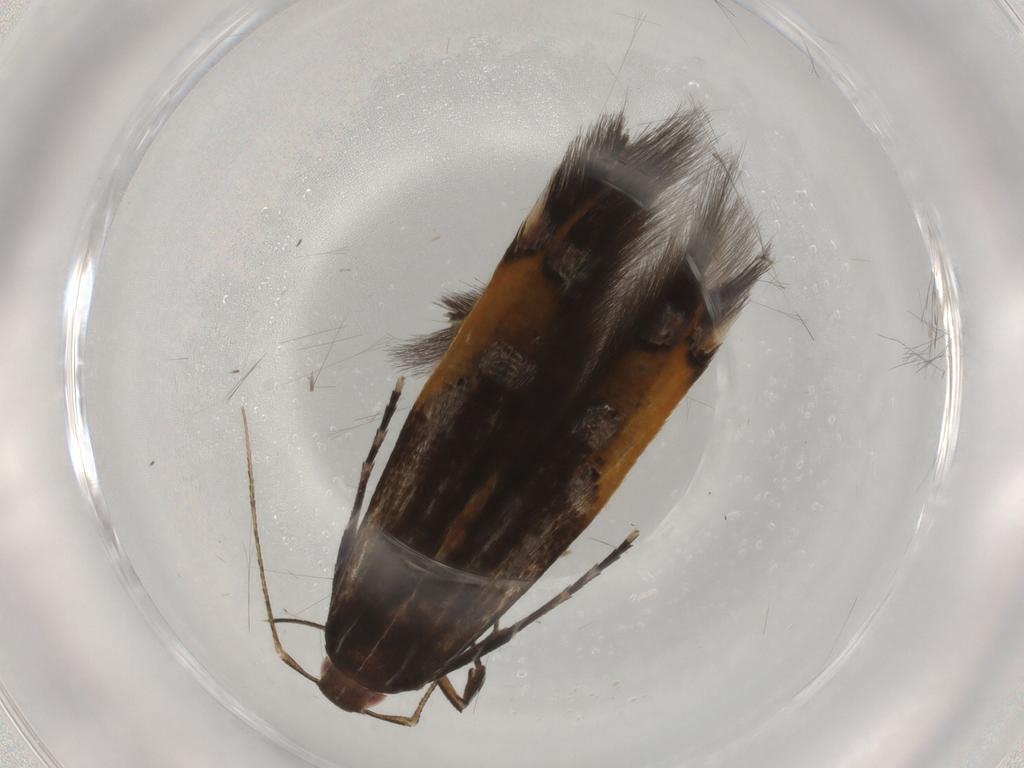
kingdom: Animalia
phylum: Arthropoda
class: Insecta
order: Lepidoptera
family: Cosmopterigidae
